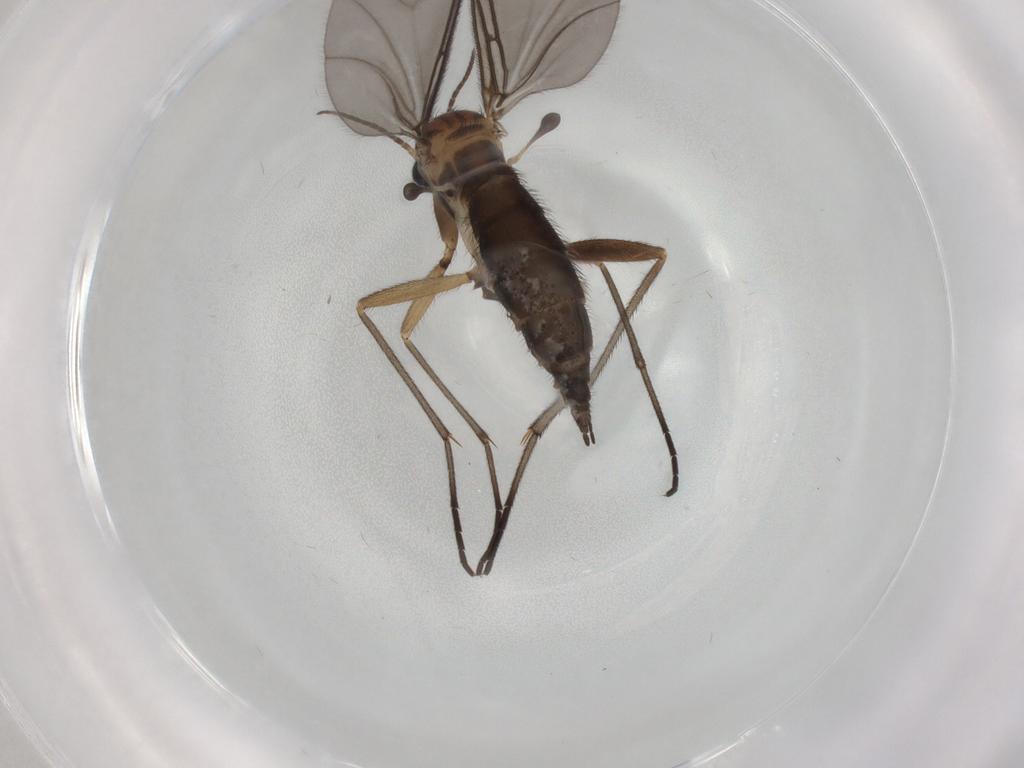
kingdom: Animalia
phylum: Arthropoda
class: Insecta
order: Diptera
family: Sciaridae
